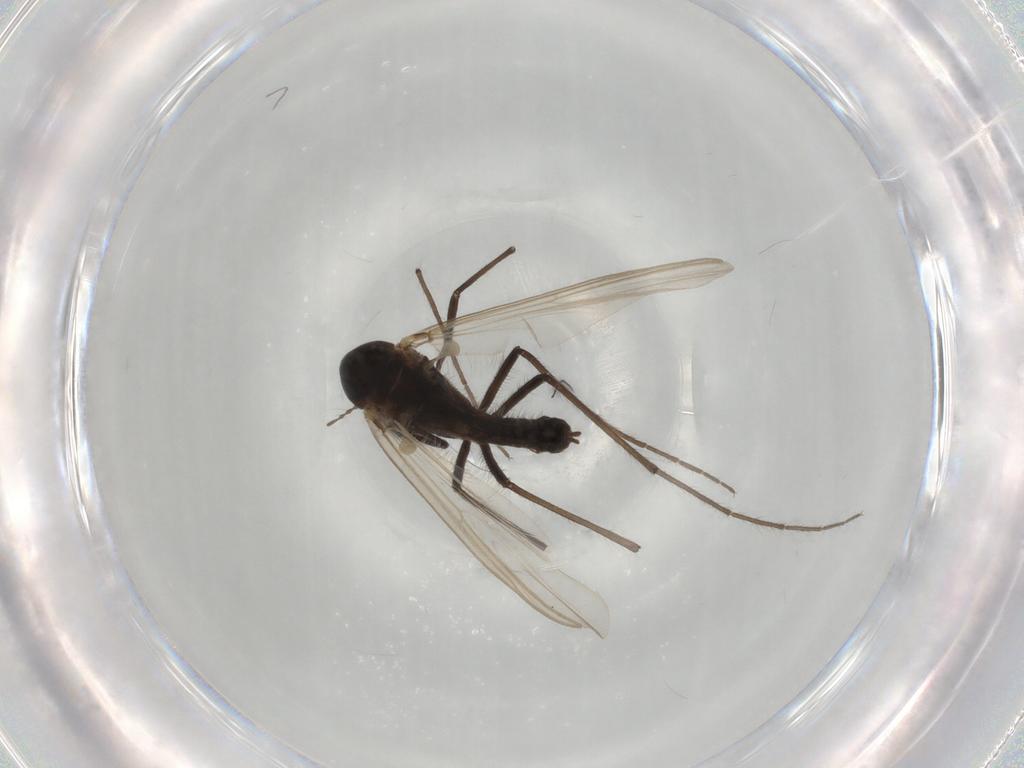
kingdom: Animalia
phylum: Arthropoda
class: Insecta
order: Diptera
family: Chironomidae
